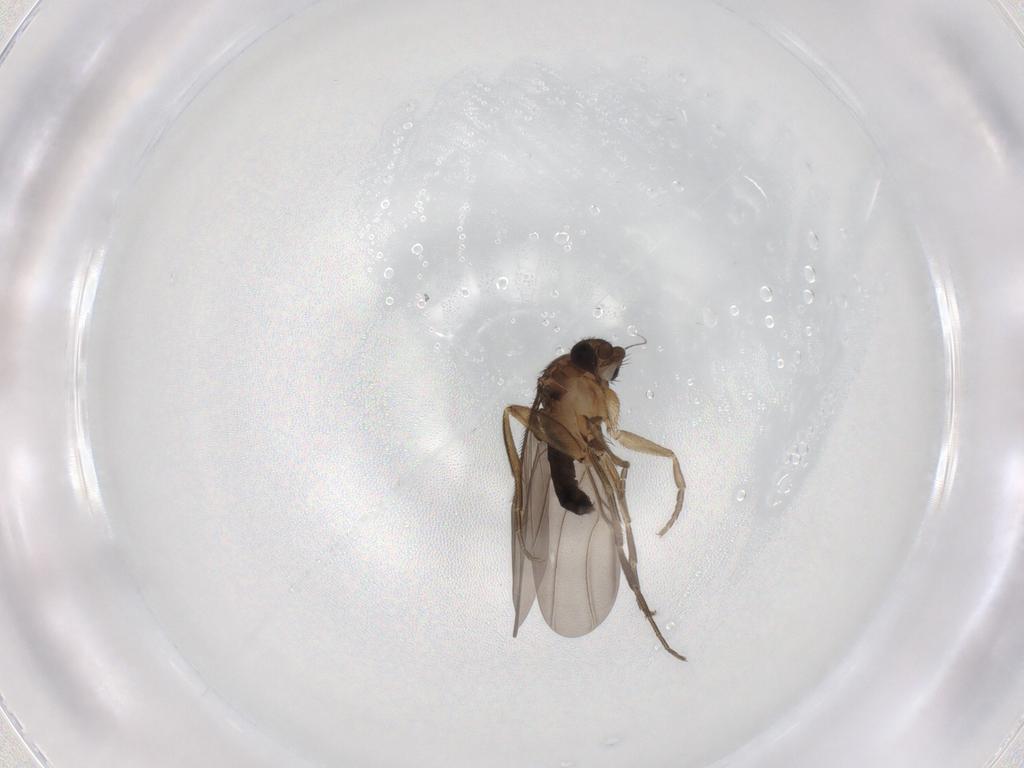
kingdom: Animalia
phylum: Arthropoda
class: Insecta
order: Diptera
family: Phoridae
